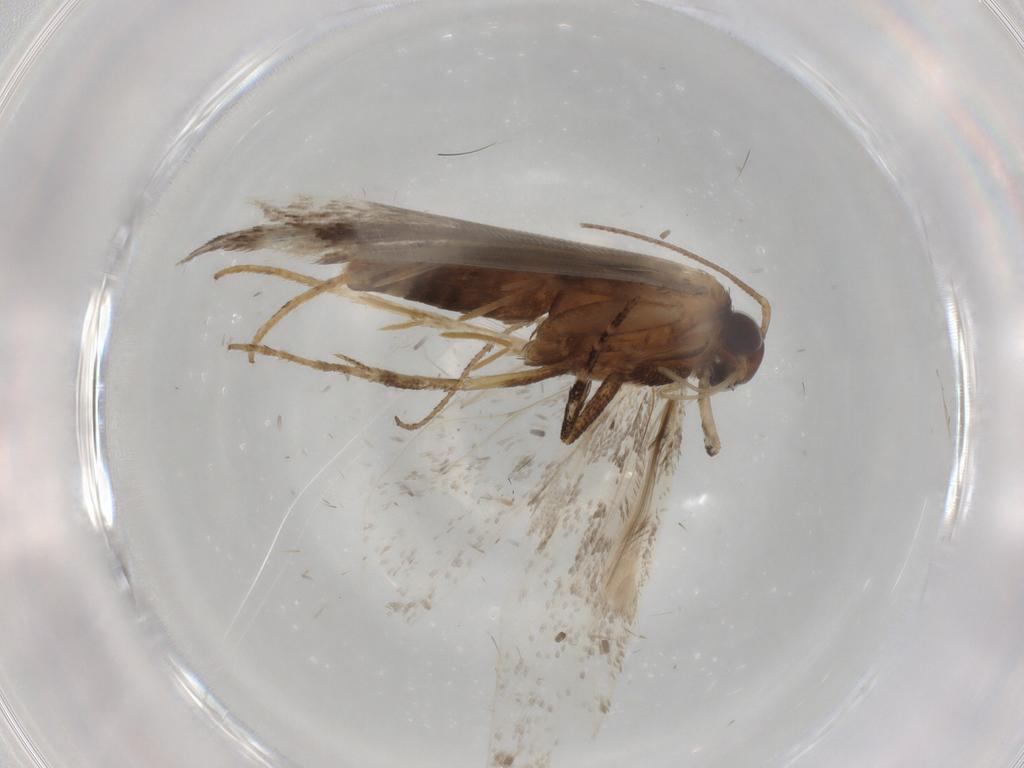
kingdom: Animalia
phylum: Arthropoda
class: Insecta
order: Lepidoptera
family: Gelechiidae
